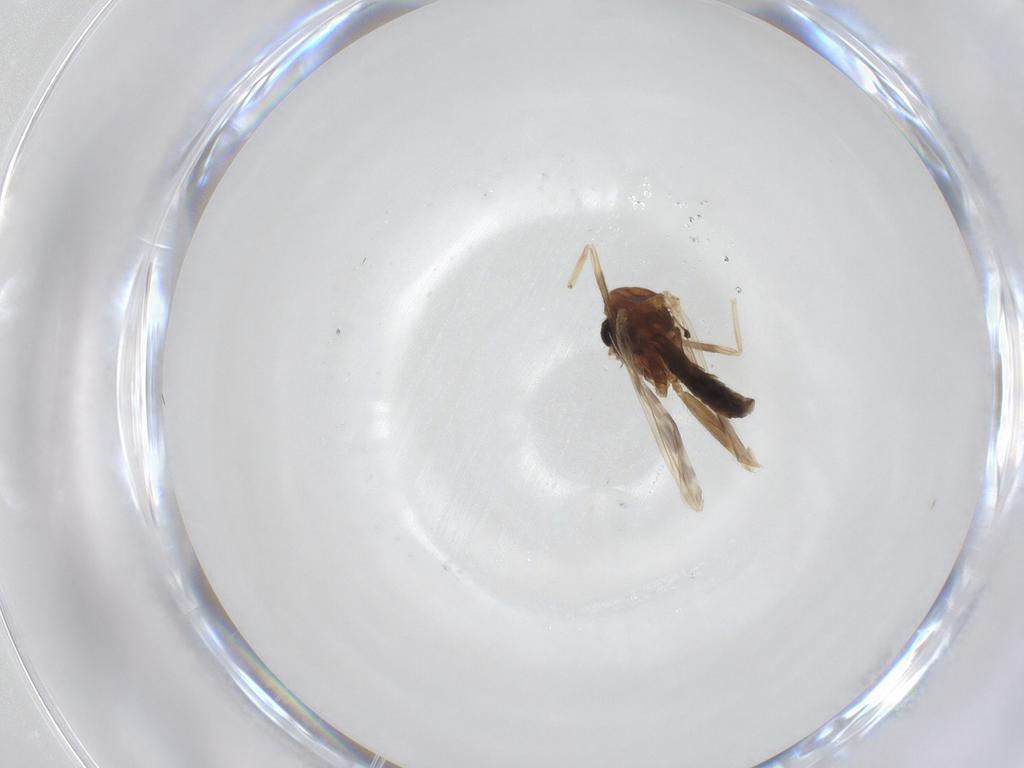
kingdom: Animalia
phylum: Arthropoda
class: Insecta
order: Diptera
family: Chironomidae
